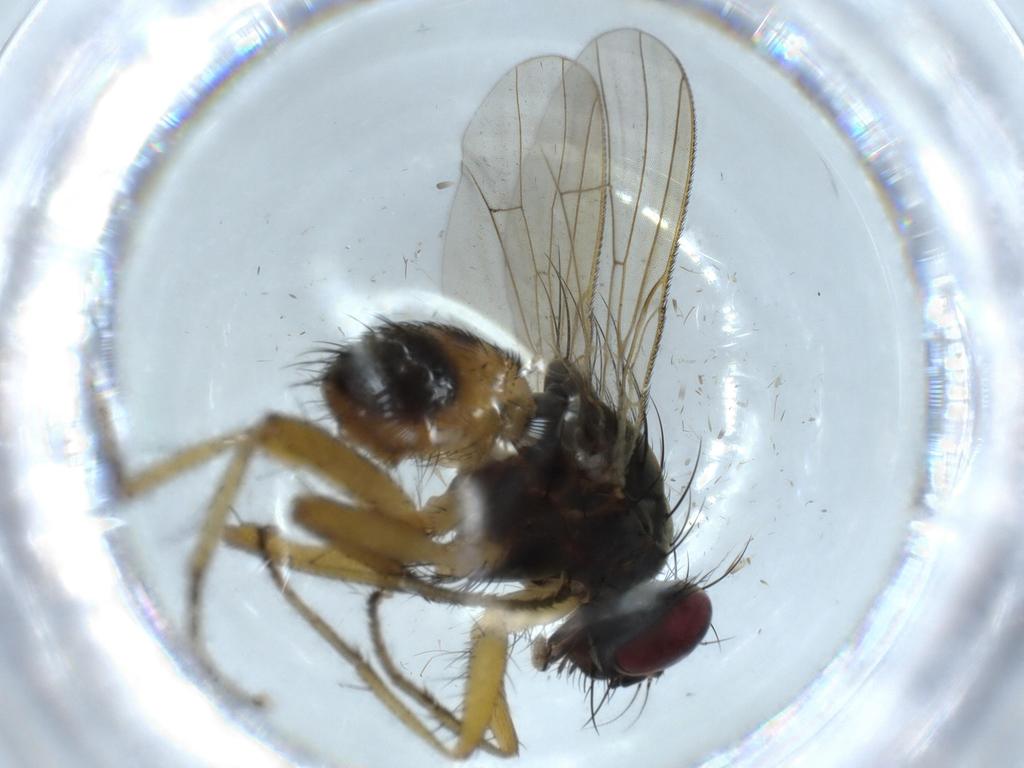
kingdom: Animalia
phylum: Arthropoda
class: Insecta
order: Diptera
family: Muscidae
